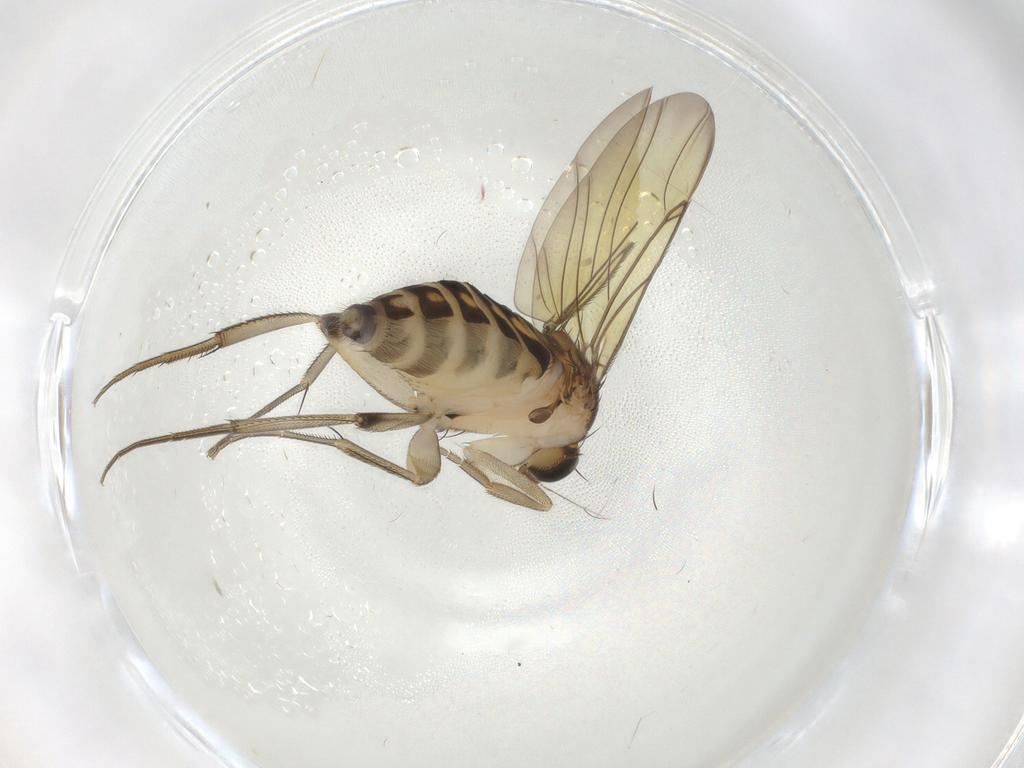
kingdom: Animalia
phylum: Arthropoda
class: Insecta
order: Diptera
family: Phoridae
